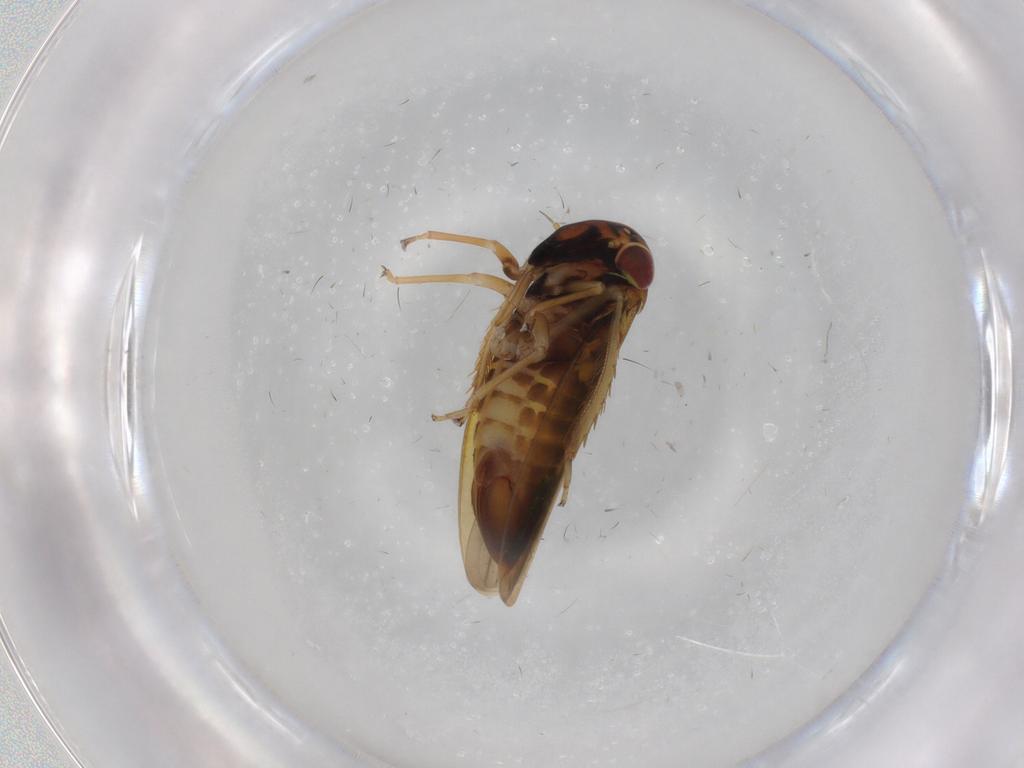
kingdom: Animalia
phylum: Arthropoda
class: Insecta
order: Hemiptera
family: Cicadellidae
